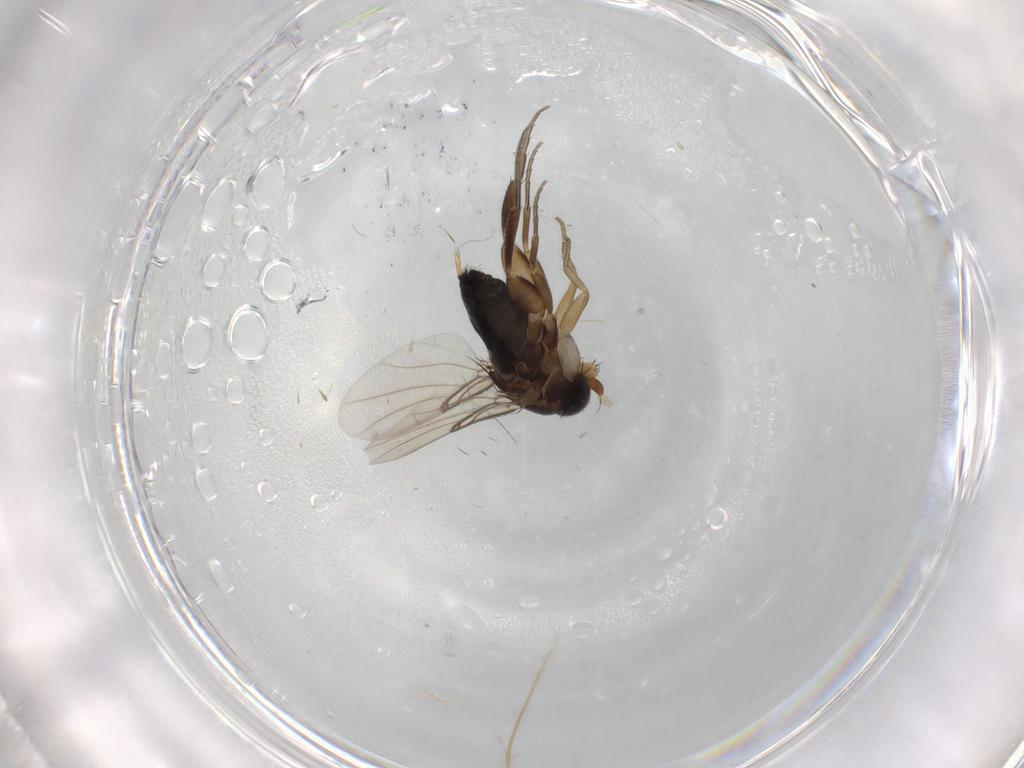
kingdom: Animalia
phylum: Arthropoda
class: Insecta
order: Diptera
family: Phoridae
